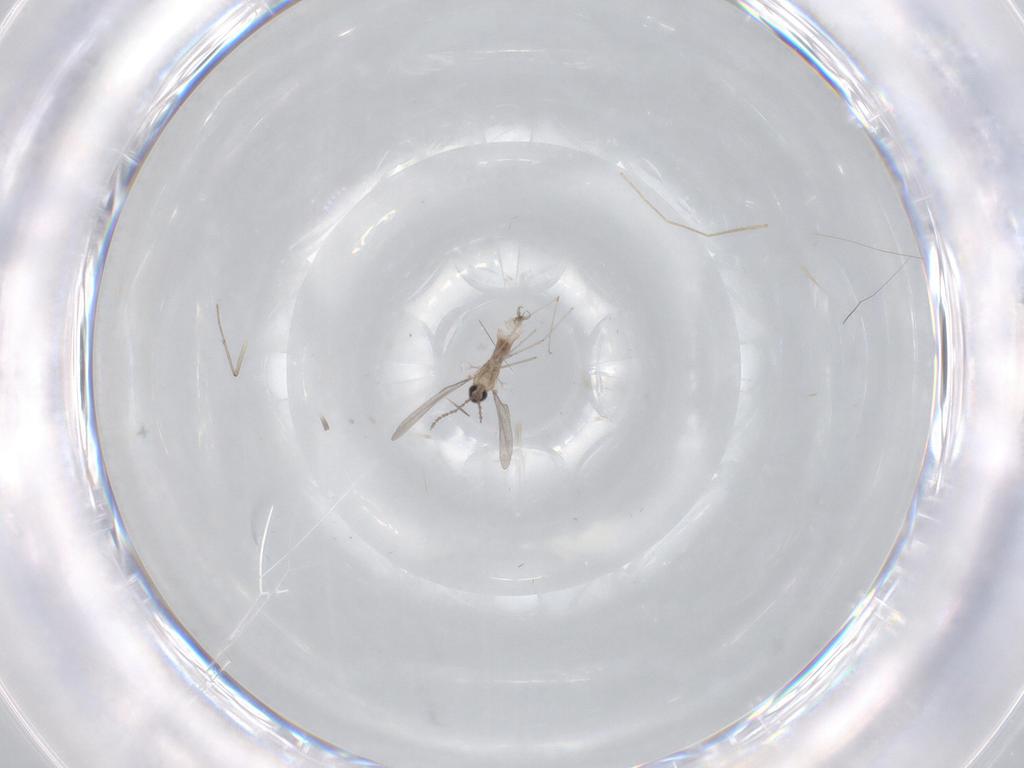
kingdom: Animalia
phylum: Arthropoda
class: Insecta
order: Diptera
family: Cecidomyiidae
